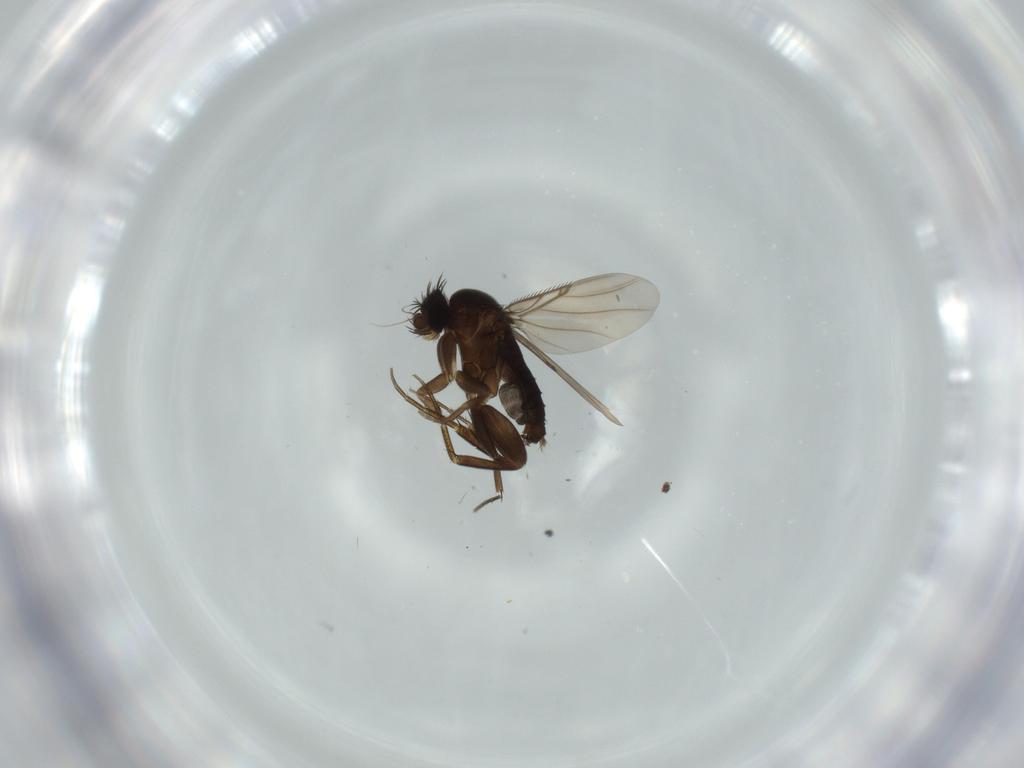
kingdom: Animalia
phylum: Arthropoda
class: Insecta
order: Diptera
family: Cecidomyiidae
